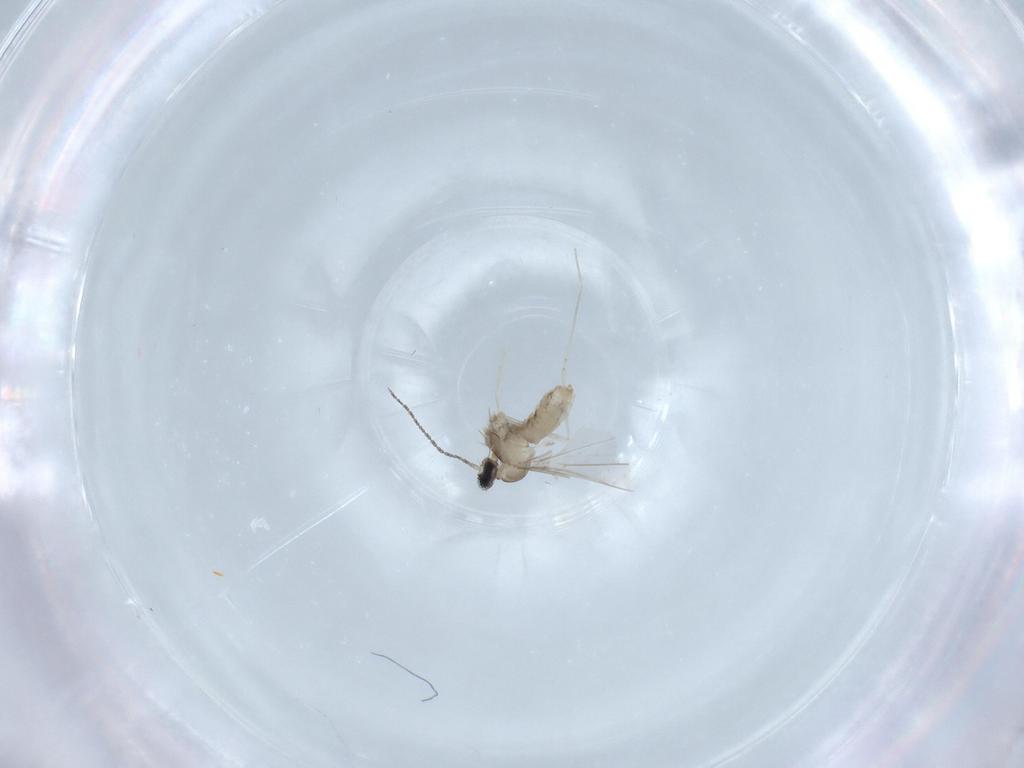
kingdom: Animalia
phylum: Arthropoda
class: Insecta
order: Diptera
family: Cecidomyiidae
